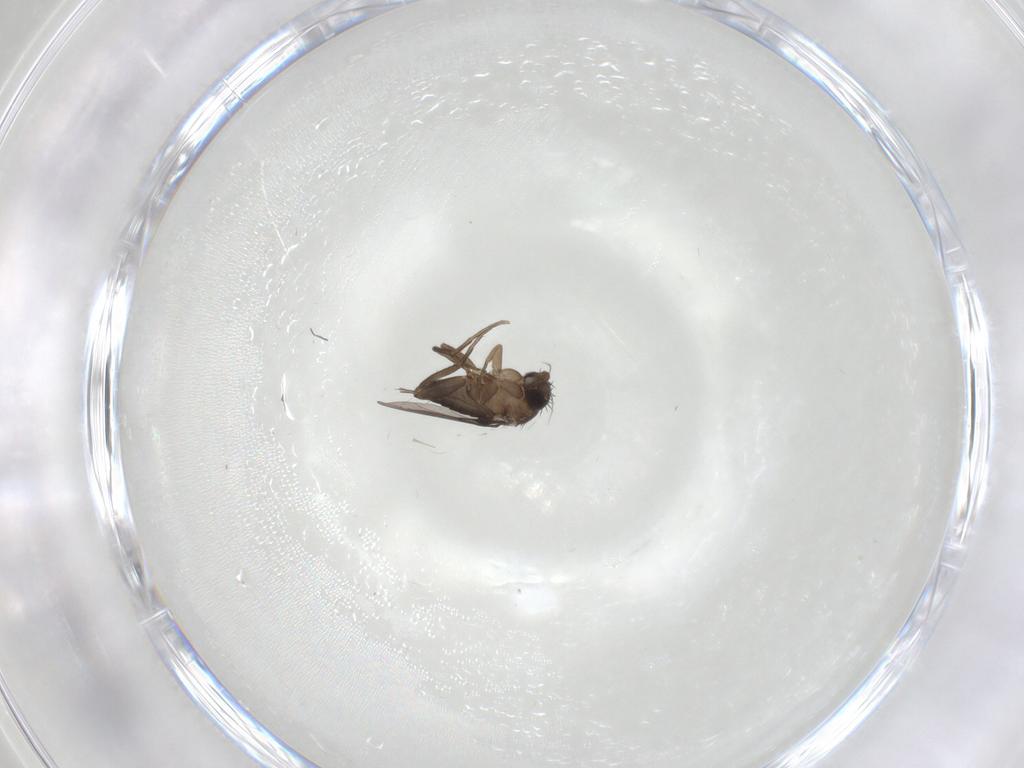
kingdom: Animalia
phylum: Arthropoda
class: Insecta
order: Diptera
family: Phoridae
